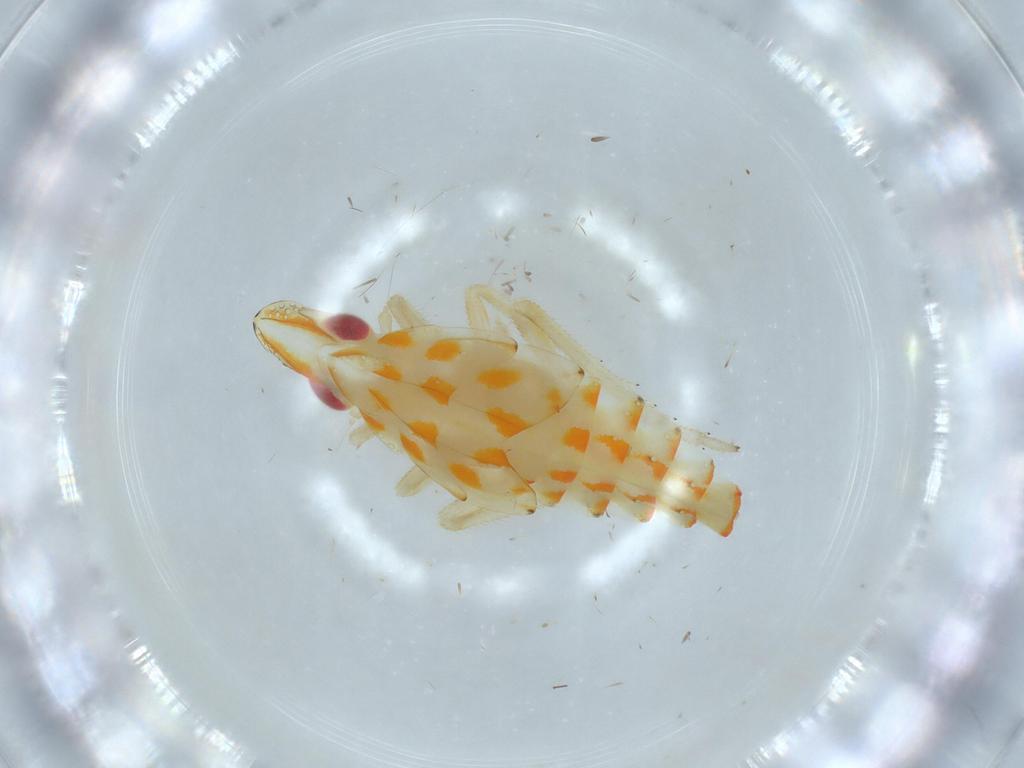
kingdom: Animalia
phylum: Arthropoda
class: Insecta
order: Hemiptera
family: Tropiduchidae
